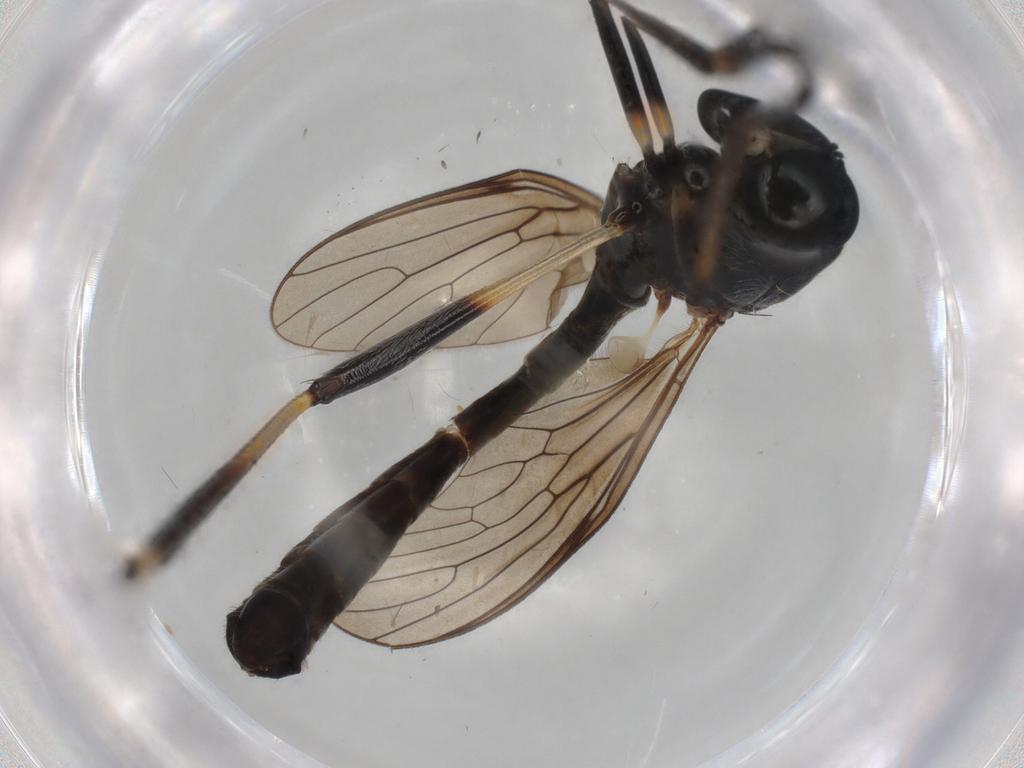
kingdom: Animalia
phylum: Arthropoda
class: Insecta
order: Diptera
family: Asilidae
